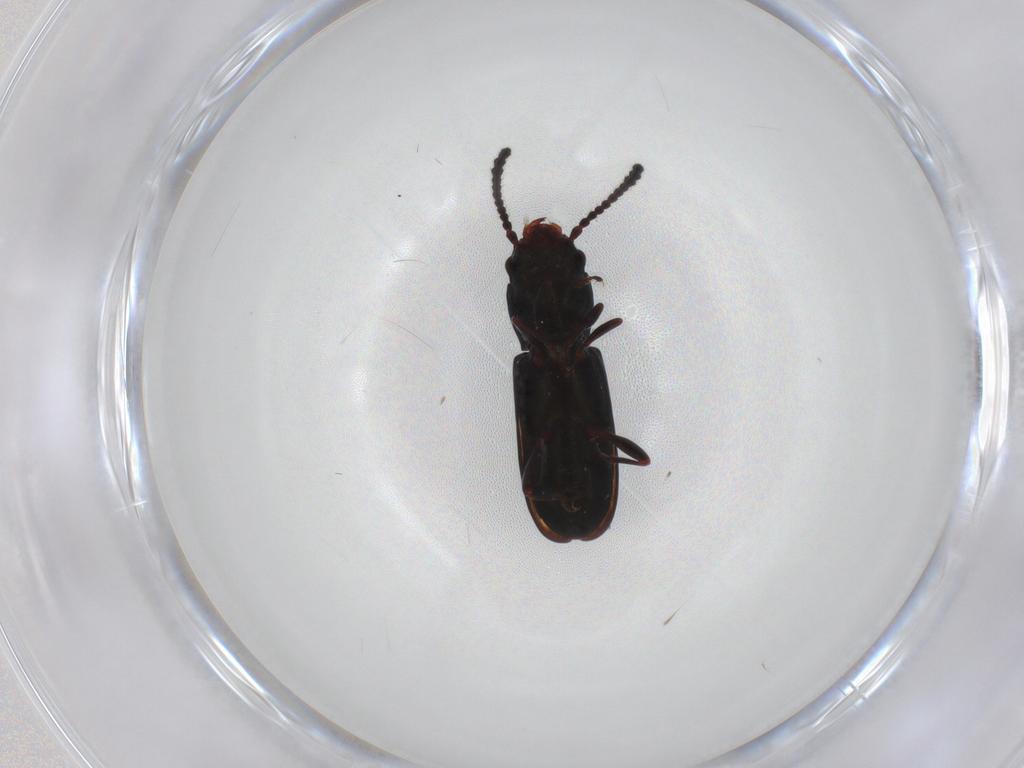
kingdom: Animalia
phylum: Arthropoda
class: Insecta
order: Coleoptera
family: Laemophloeidae
